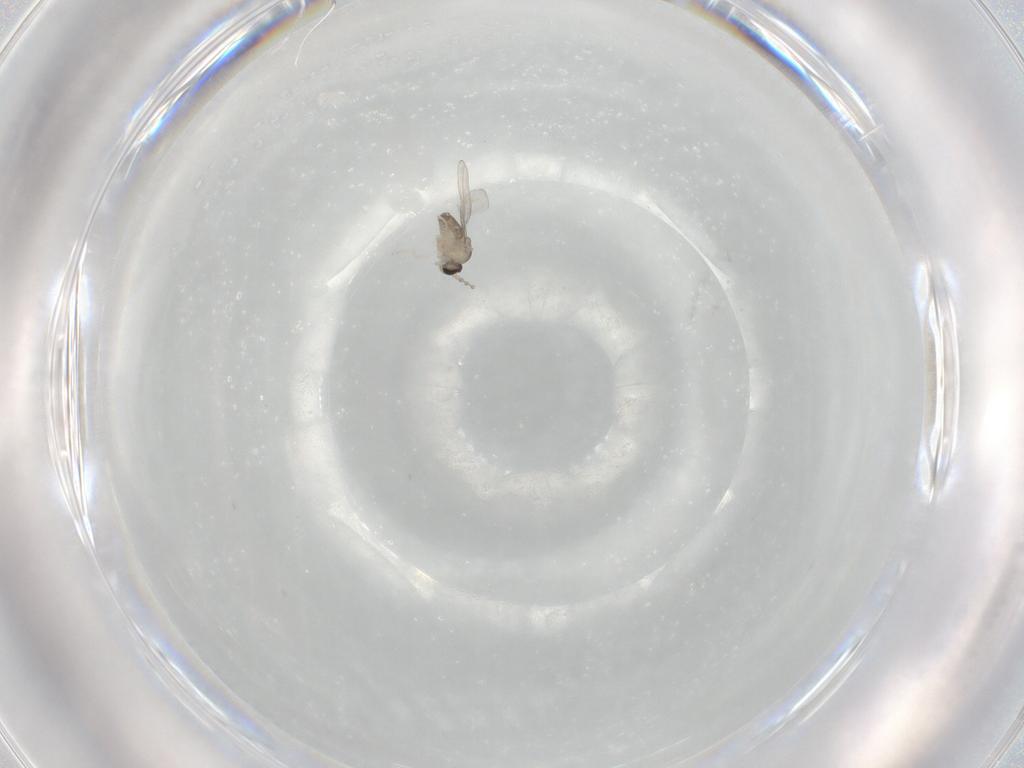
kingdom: Animalia
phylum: Arthropoda
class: Insecta
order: Diptera
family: Cecidomyiidae
